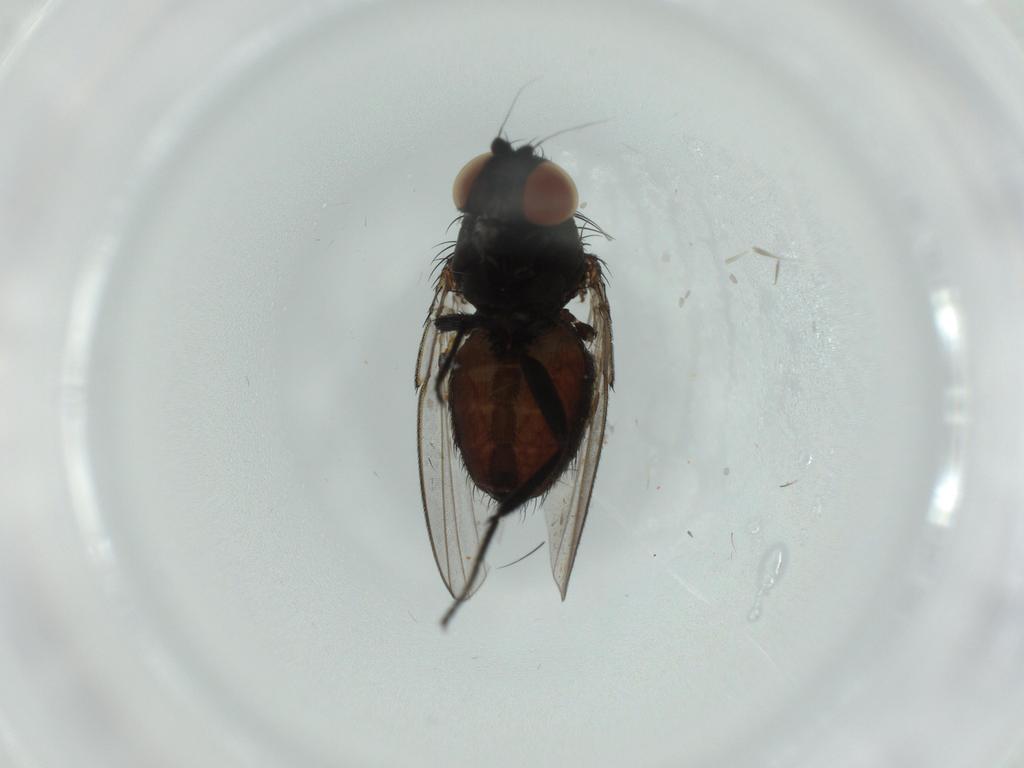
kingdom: Animalia
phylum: Arthropoda
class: Insecta
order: Diptera
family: Milichiidae
